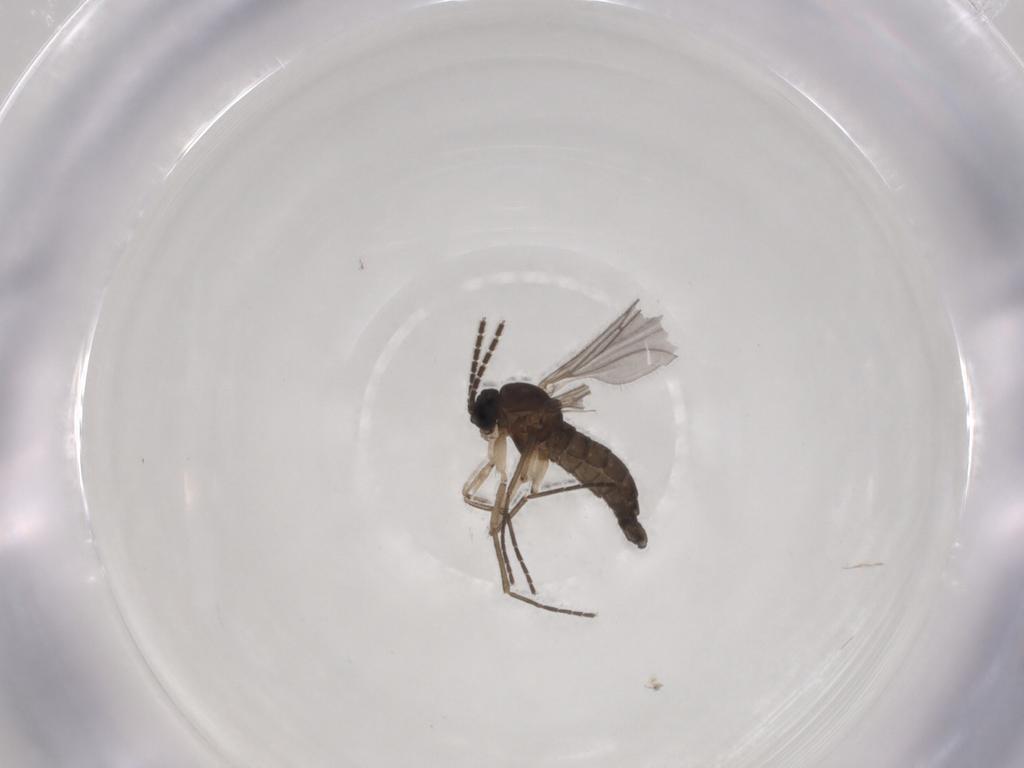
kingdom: Animalia
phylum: Arthropoda
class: Insecta
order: Diptera
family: Sciaridae
